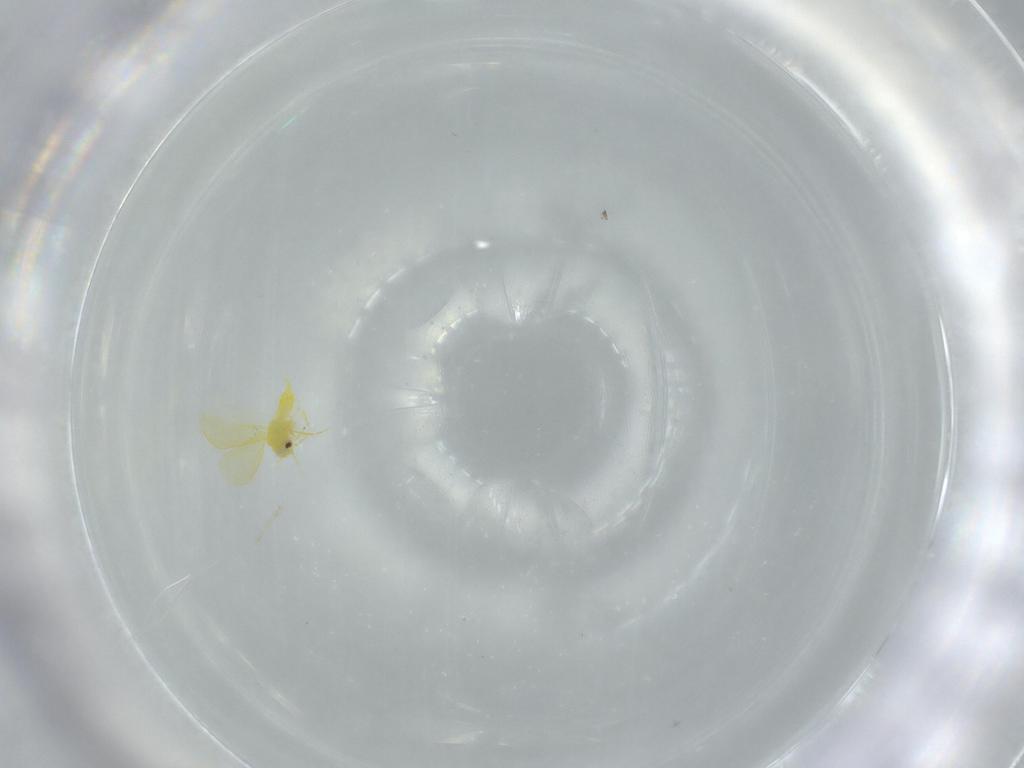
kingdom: Animalia
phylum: Arthropoda
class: Insecta
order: Hemiptera
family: Aleyrodidae
